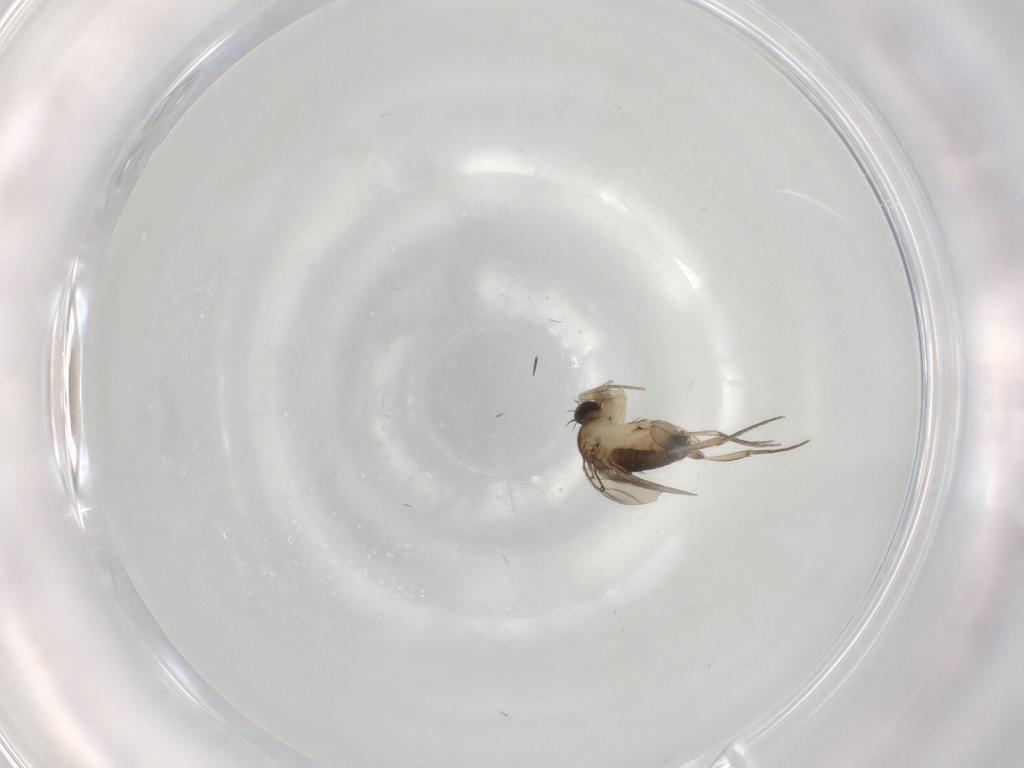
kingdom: Animalia
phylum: Arthropoda
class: Insecta
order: Diptera
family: Phoridae
